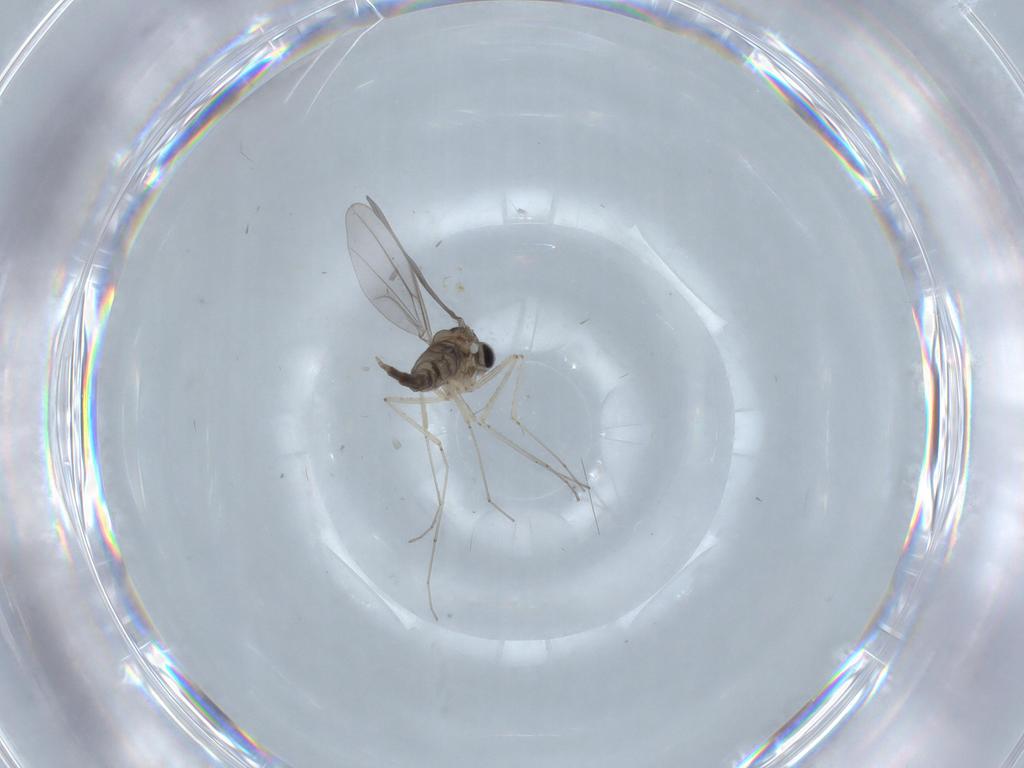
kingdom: Animalia
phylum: Arthropoda
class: Insecta
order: Diptera
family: Cecidomyiidae
